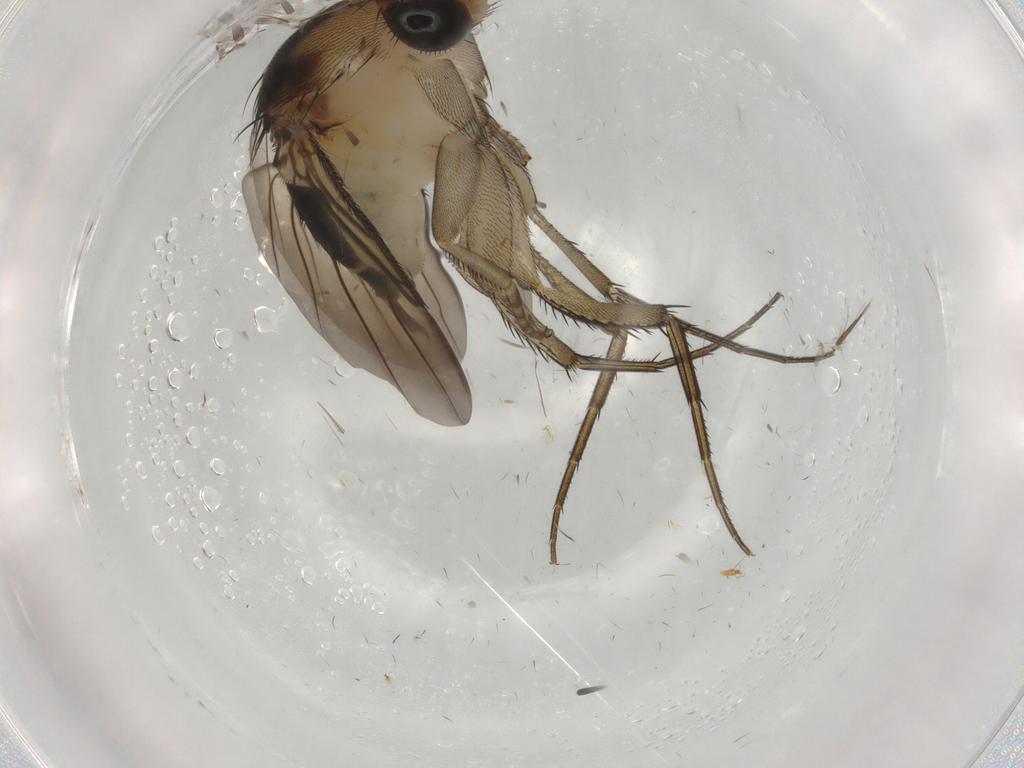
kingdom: Animalia
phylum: Arthropoda
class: Insecta
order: Diptera
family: Phoridae
